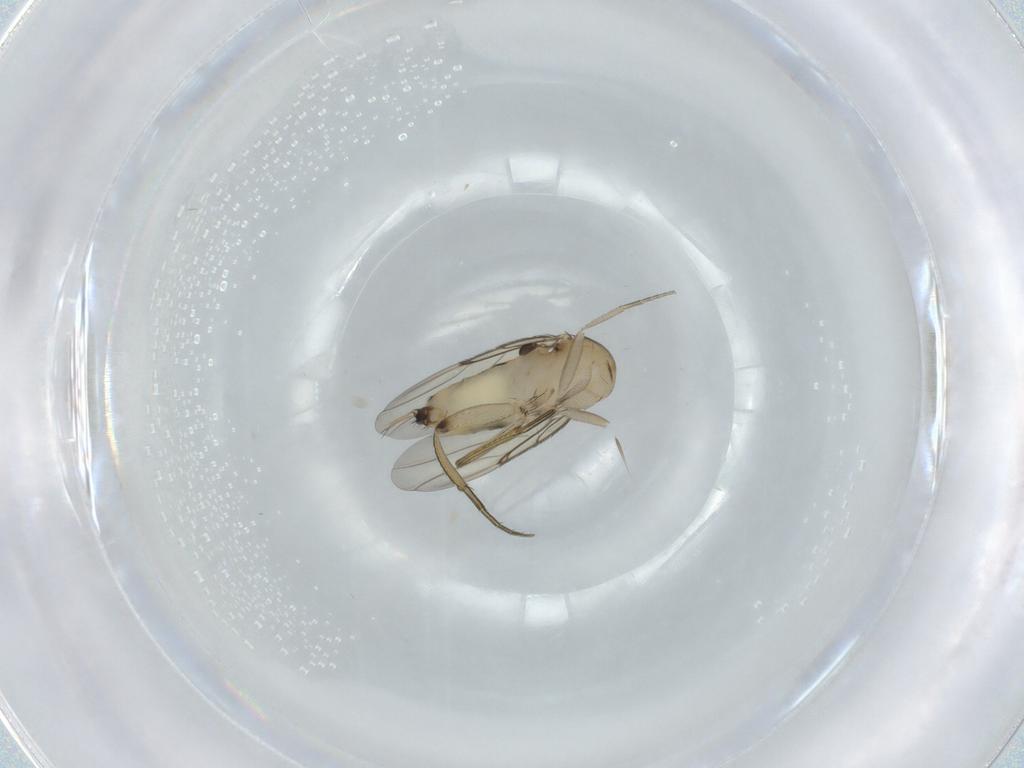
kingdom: Animalia
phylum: Arthropoda
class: Insecta
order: Diptera
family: Phoridae
